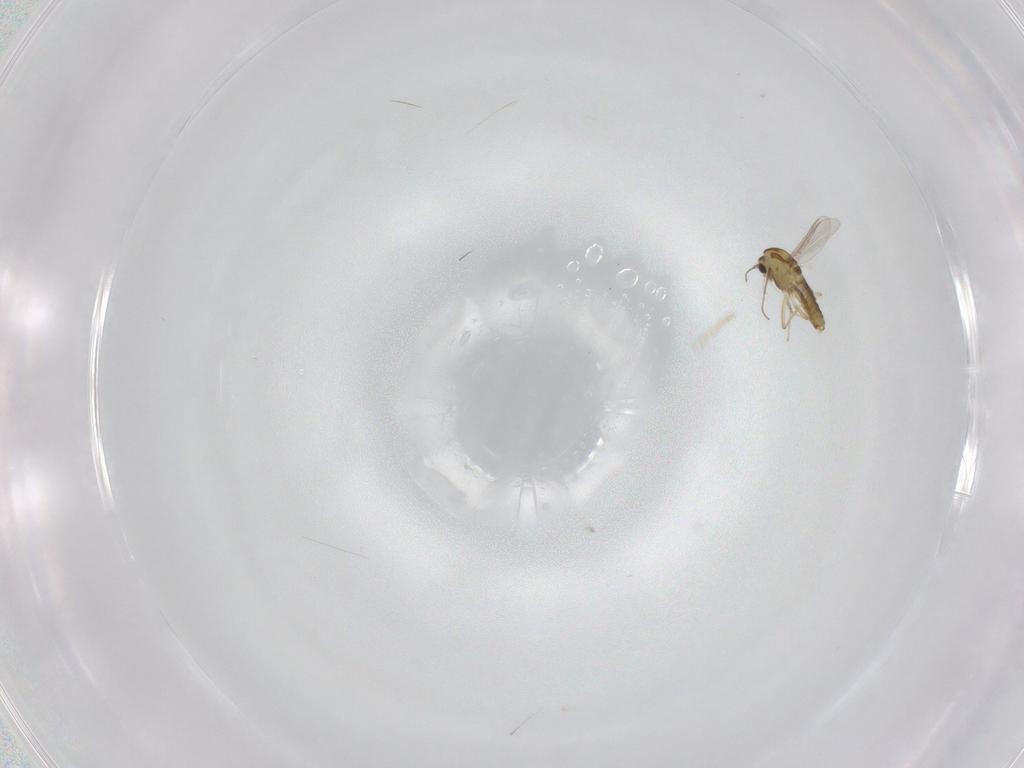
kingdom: Animalia
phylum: Arthropoda
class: Insecta
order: Diptera
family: Chironomidae
